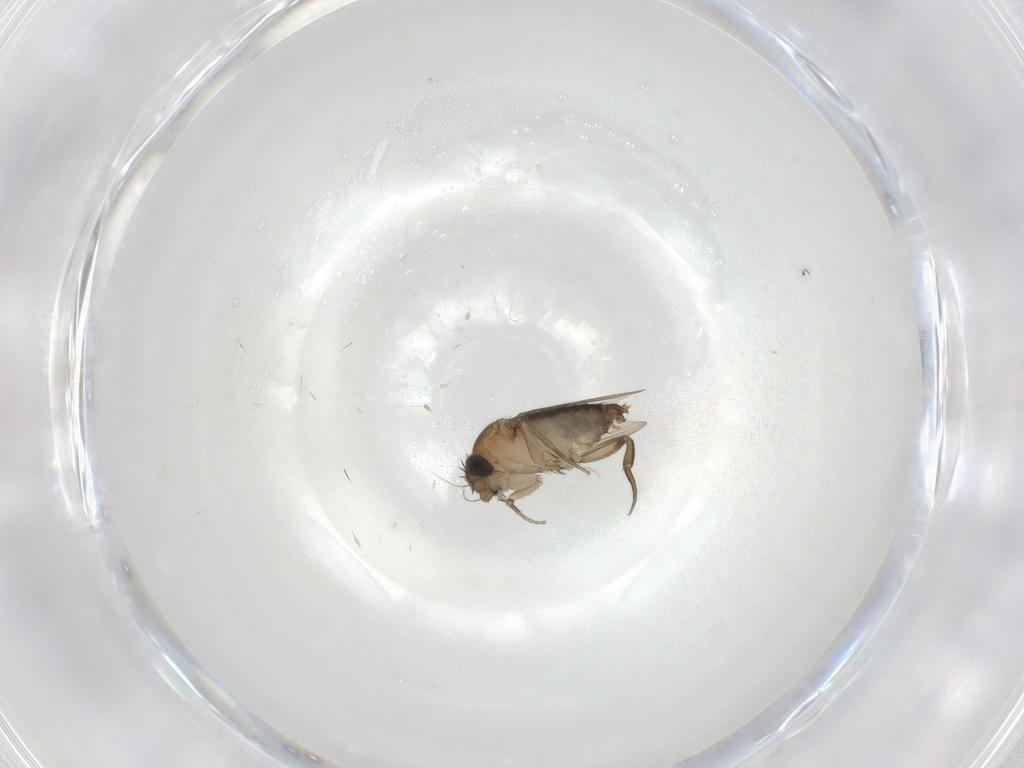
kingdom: Animalia
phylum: Arthropoda
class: Insecta
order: Diptera
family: Phoridae
